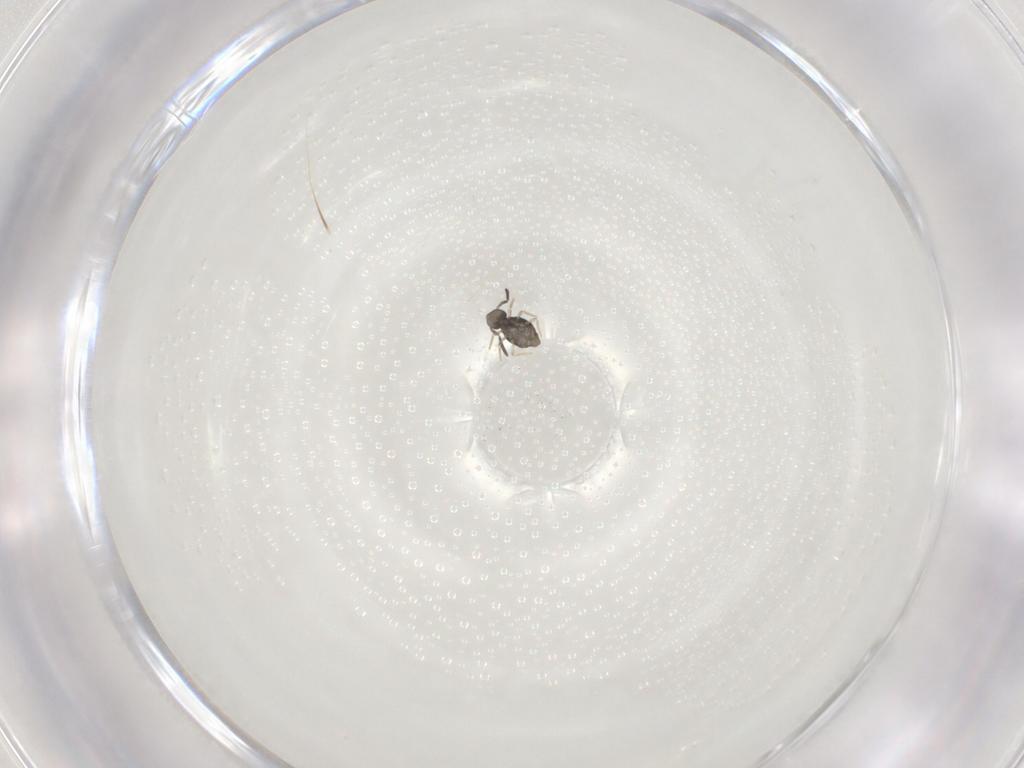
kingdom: Animalia
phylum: Arthropoda
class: Collembola
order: Symphypleona
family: Katiannidae
